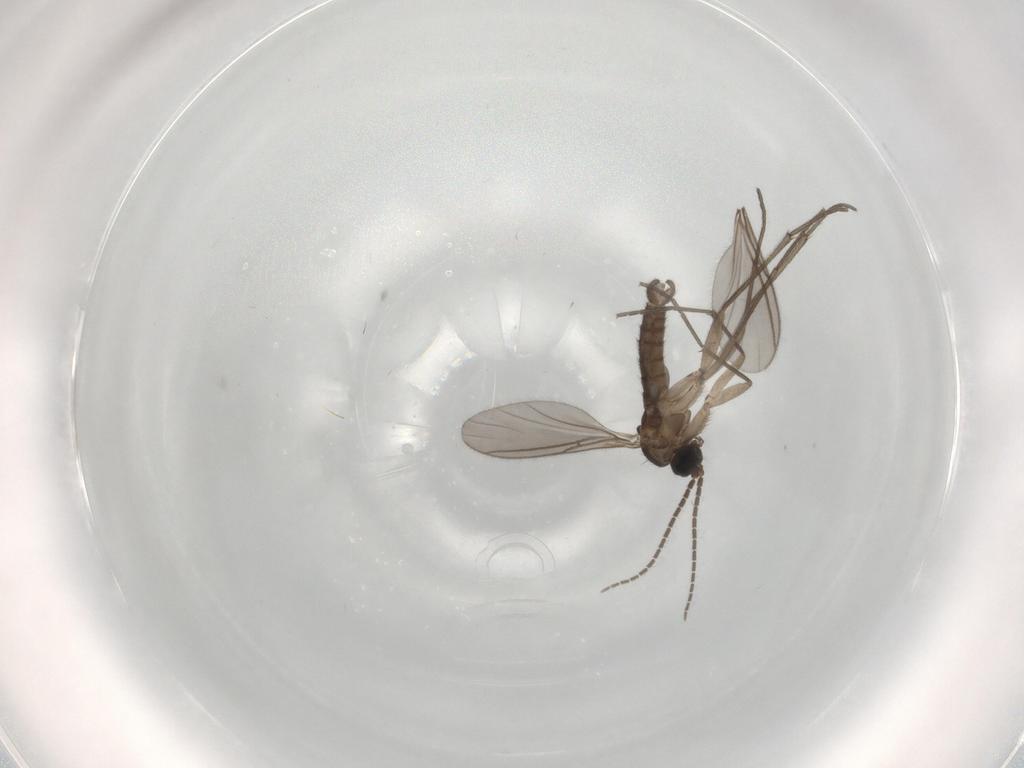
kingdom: Animalia
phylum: Arthropoda
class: Insecta
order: Diptera
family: Sciaridae
